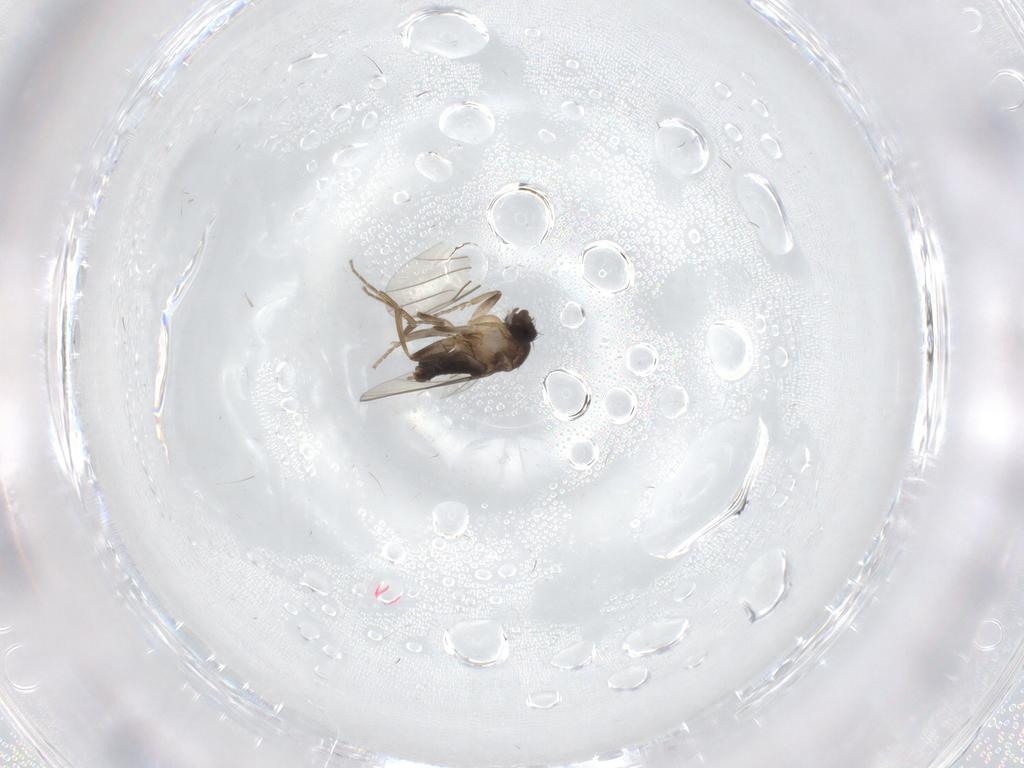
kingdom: Animalia
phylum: Arthropoda
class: Insecta
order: Diptera
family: Phoridae
